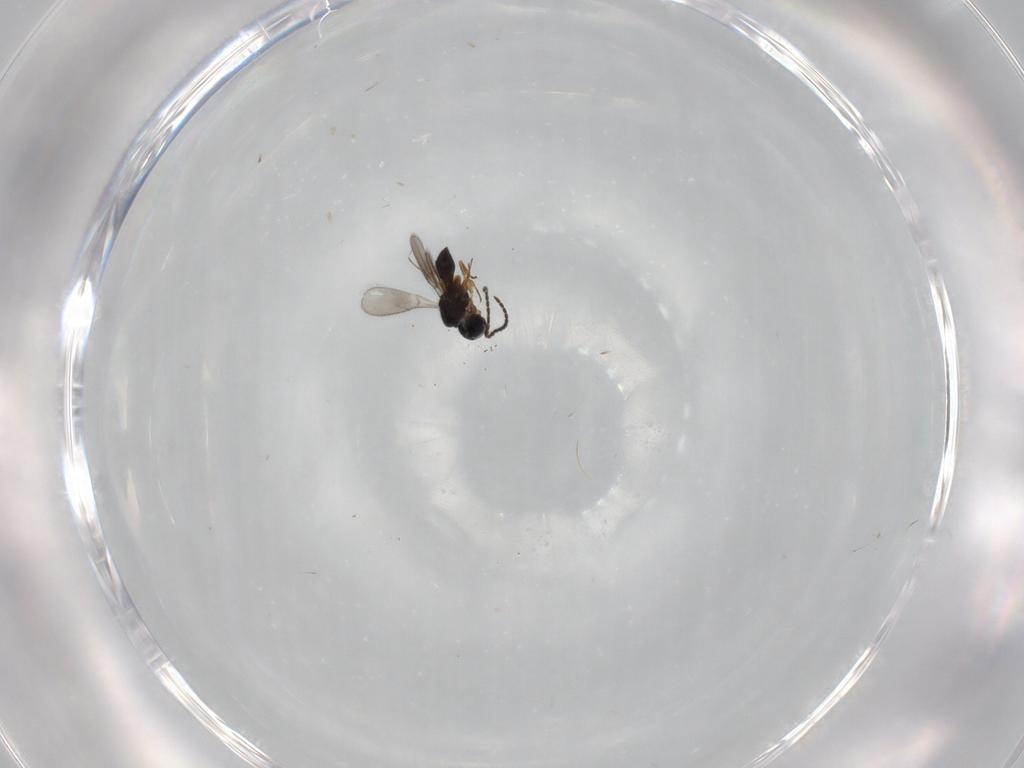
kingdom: Animalia
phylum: Arthropoda
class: Insecta
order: Hymenoptera
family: Scelionidae
